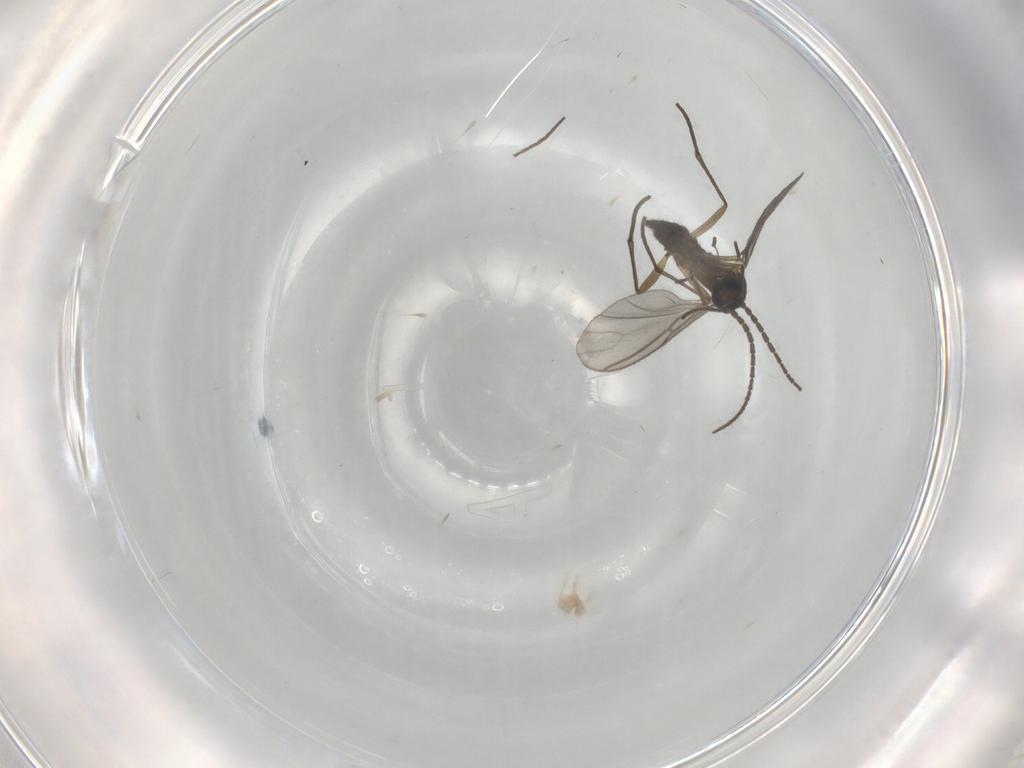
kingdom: Animalia
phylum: Arthropoda
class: Insecta
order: Diptera
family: Sciaridae
